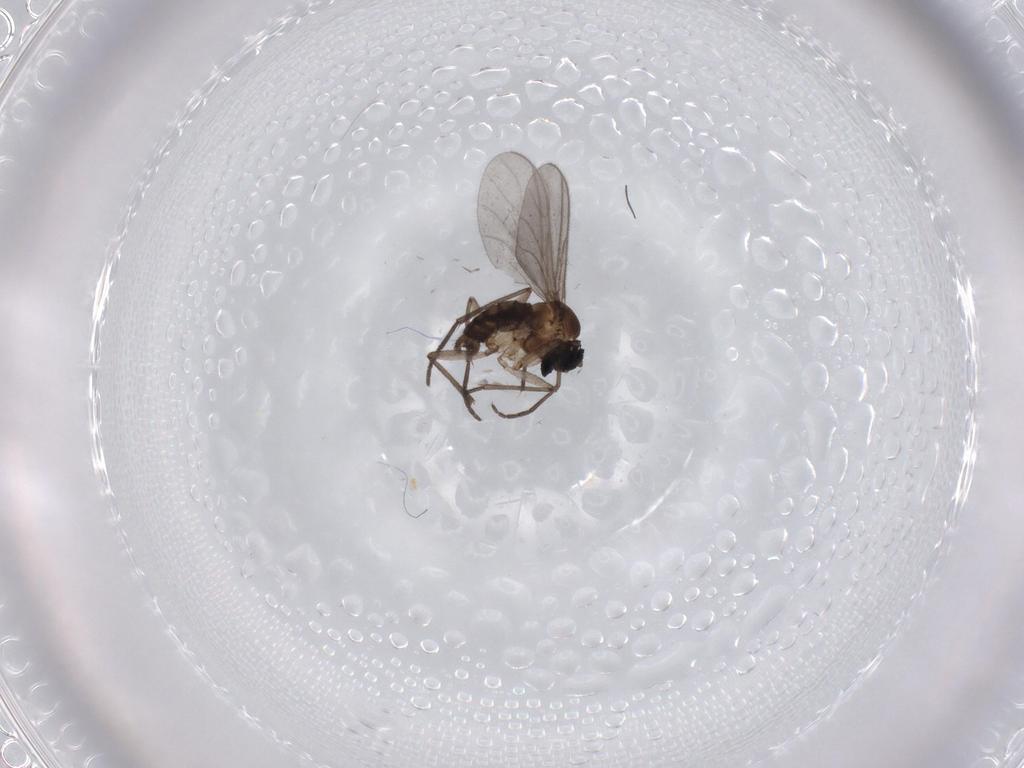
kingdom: Animalia
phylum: Arthropoda
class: Insecta
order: Diptera
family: Sciaridae
